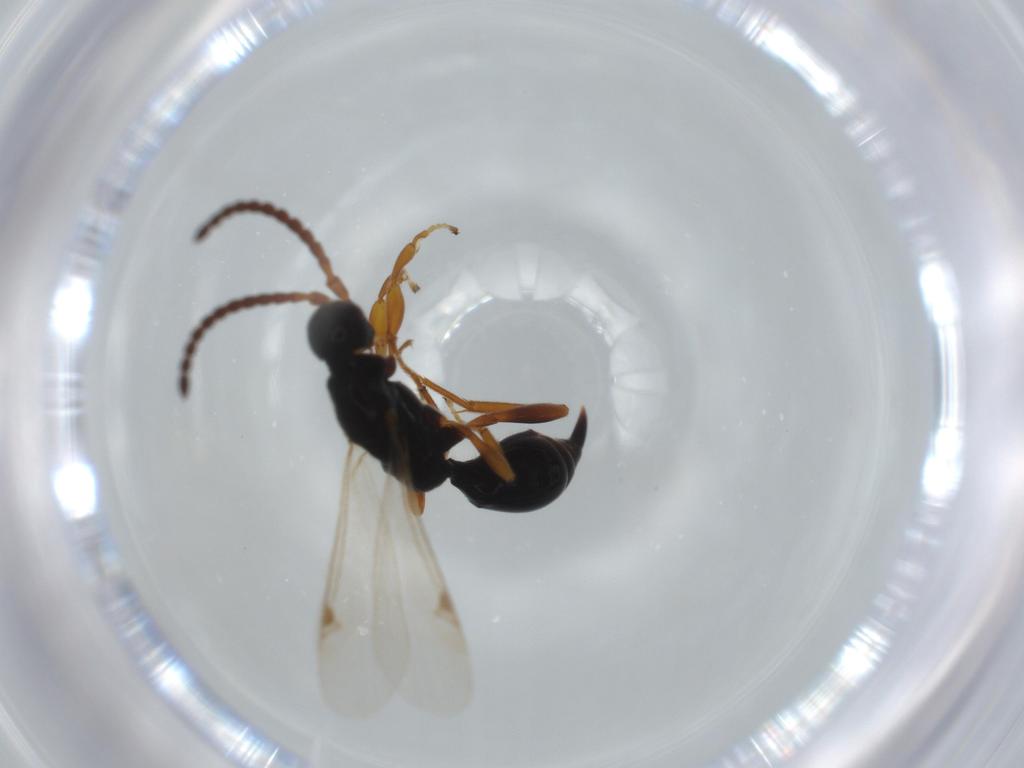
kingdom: Animalia
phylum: Arthropoda
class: Insecta
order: Hymenoptera
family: Proctotrupidae
